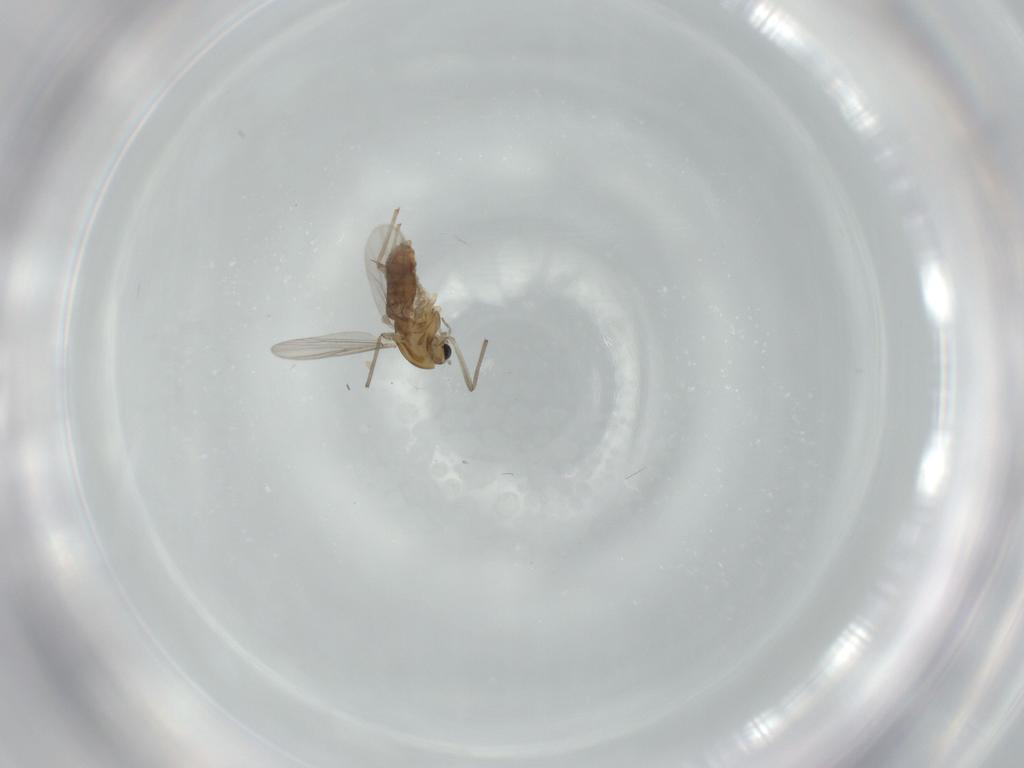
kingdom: Animalia
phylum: Arthropoda
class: Insecta
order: Diptera
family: Chironomidae
